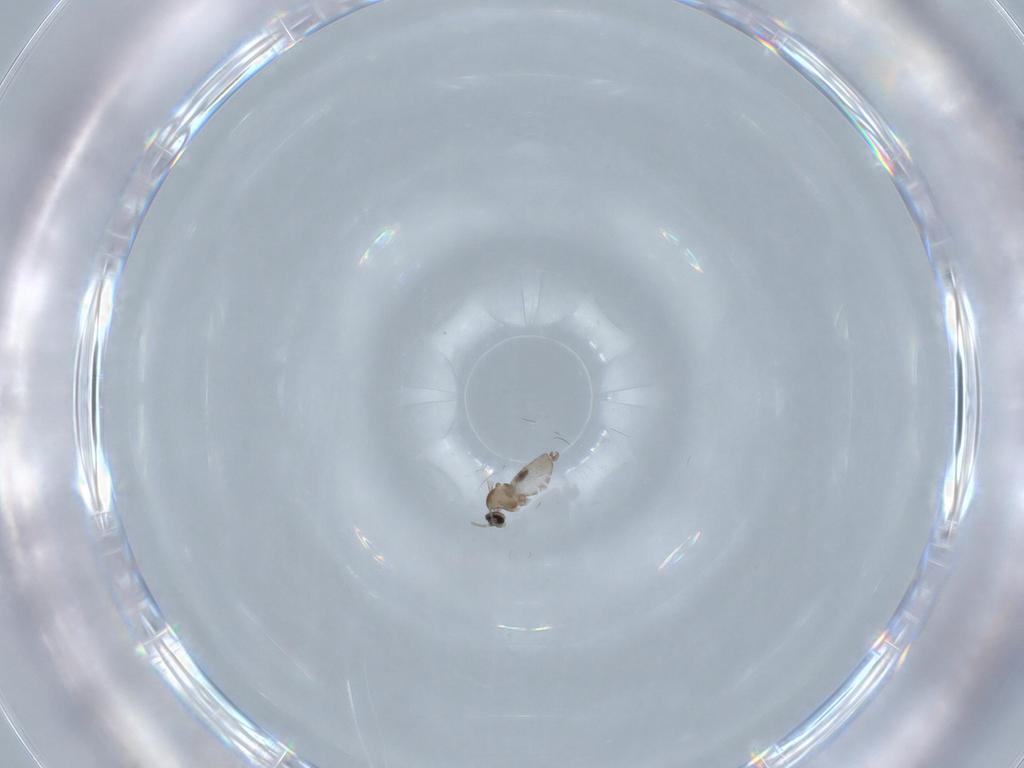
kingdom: Animalia
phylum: Arthropoda
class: Insecta
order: Diptera
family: Cecidomyiidae
